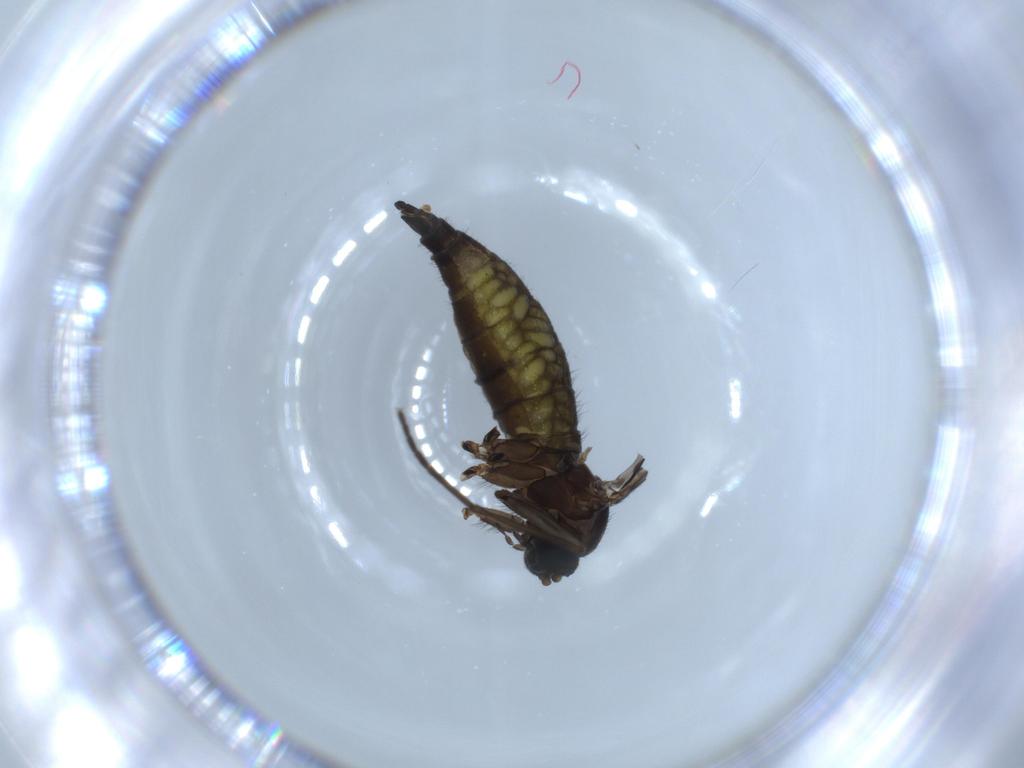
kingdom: Animalia
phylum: Arthropoda
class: Insecta
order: Diptera
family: Sciaridae
